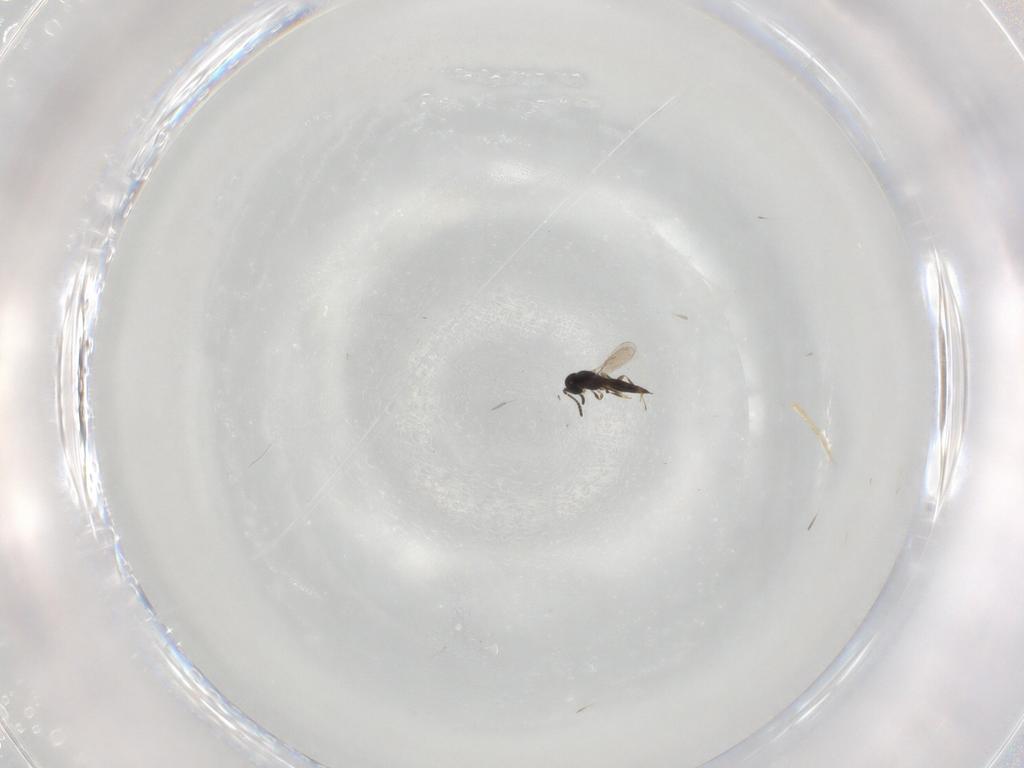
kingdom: Animalia
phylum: Arthropoda
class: Insecta
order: Hymenoptera
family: Scelionidae
